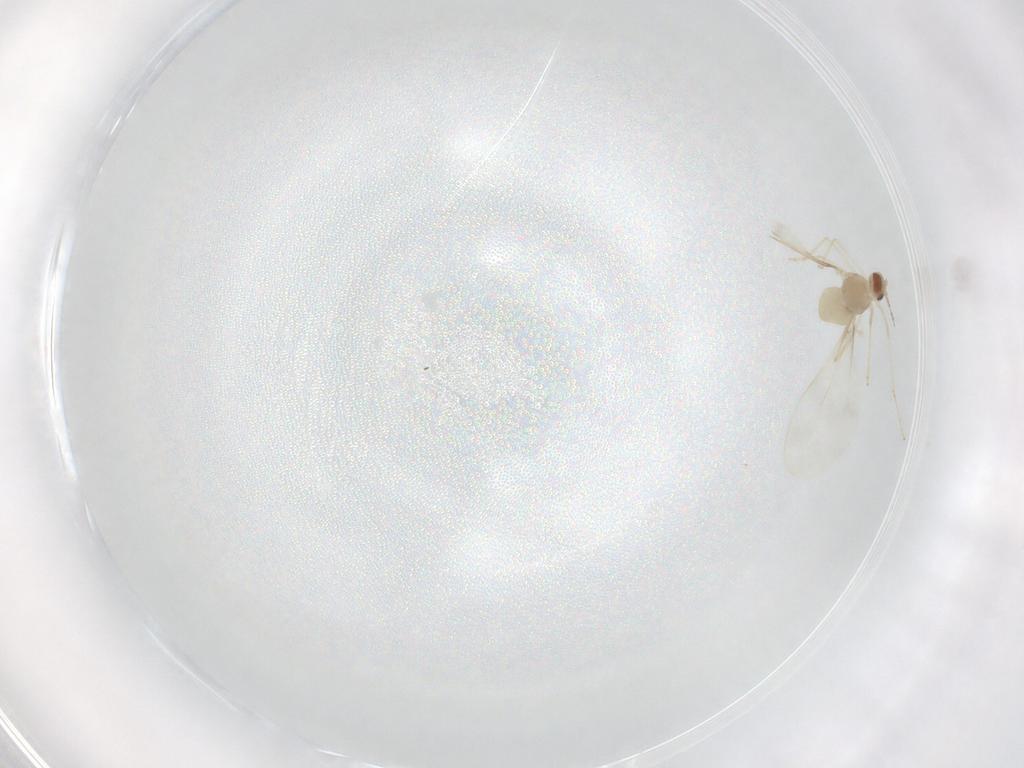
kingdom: Animalia
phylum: Arthropoda
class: Insecta
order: Diptera
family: Cecidomyiidae
